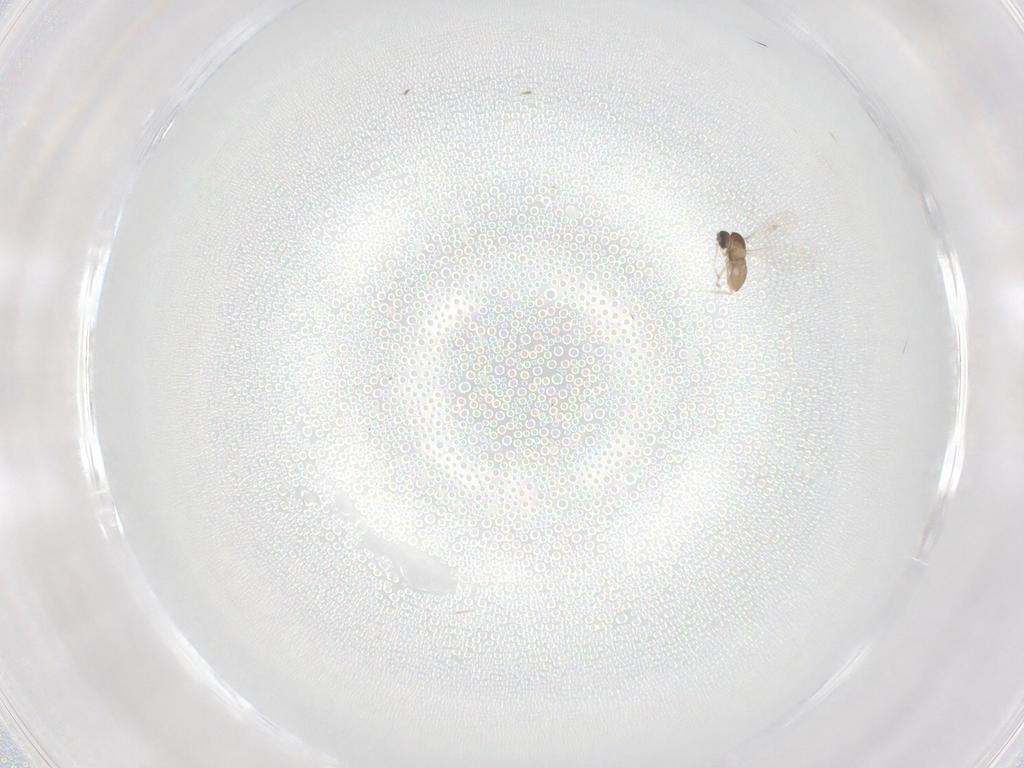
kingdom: Animalia
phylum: Arthropoda
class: Insecta
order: Diptera
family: Cecidomyiidae
